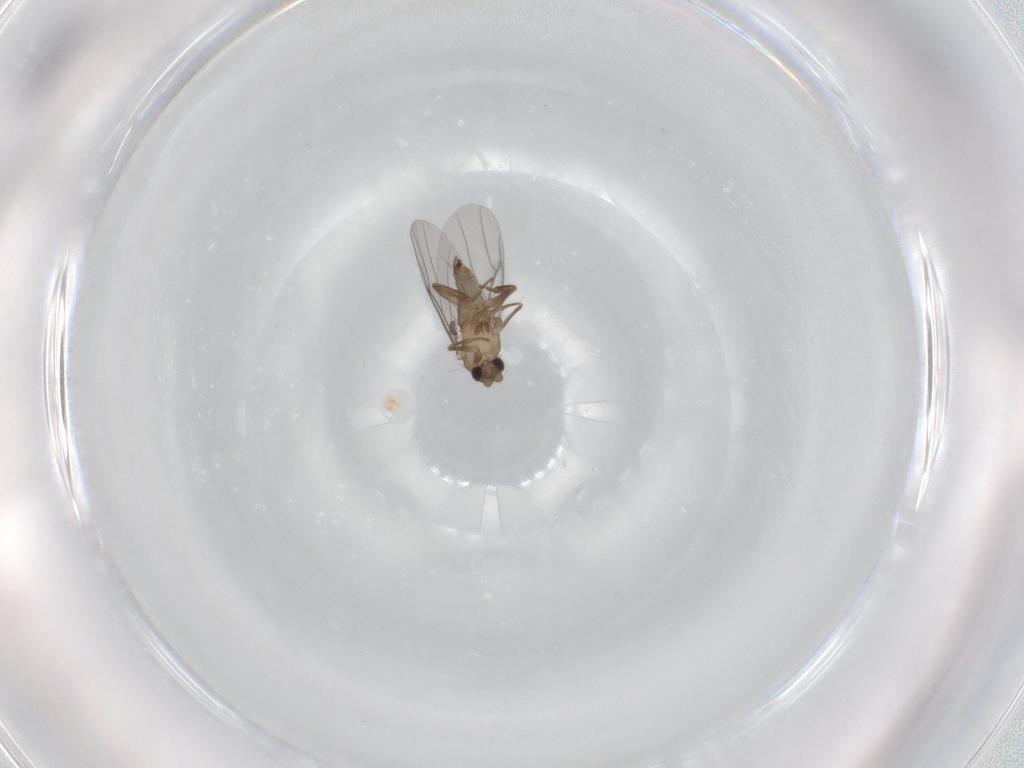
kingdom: Animalia
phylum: Arthropoda
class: Insecta
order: Diptera
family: Cecidomyiidae
